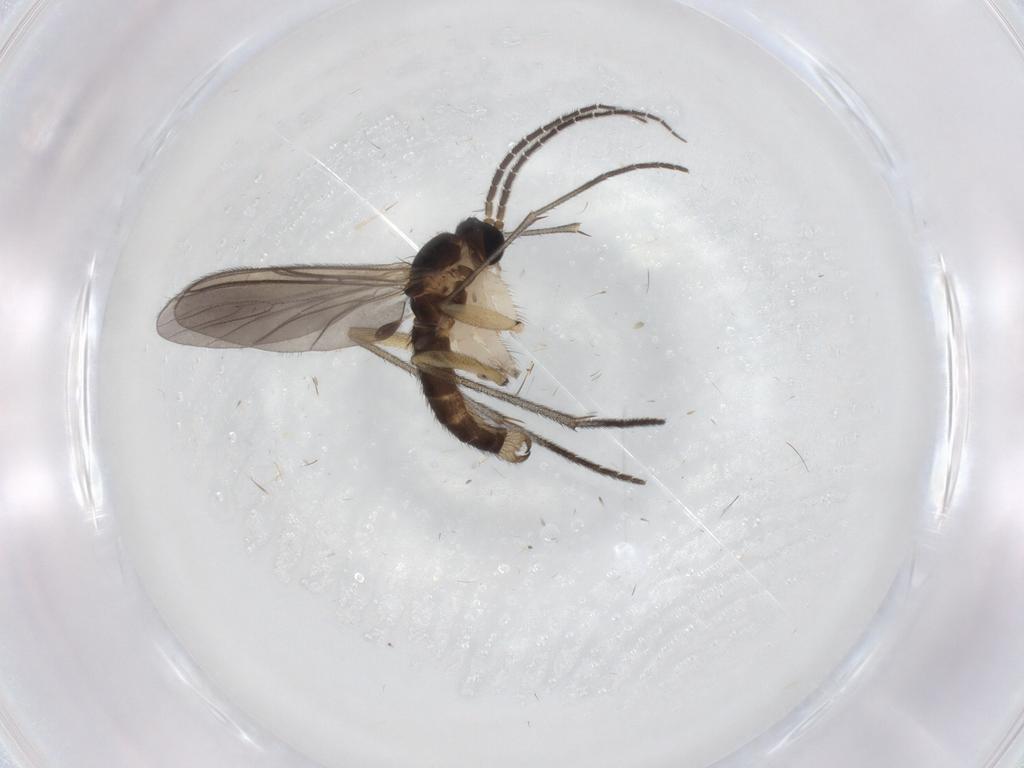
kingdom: Animalia
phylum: Arthropoda
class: Insecta
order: Diptera
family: Sciaridae
